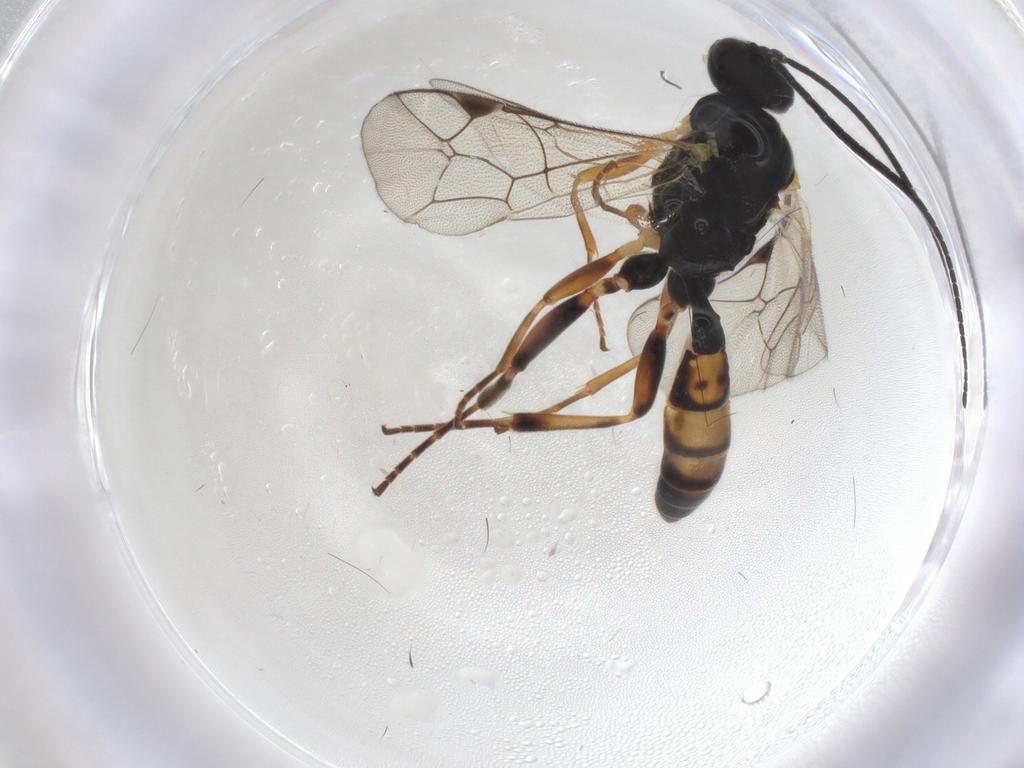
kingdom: Animalia
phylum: Arthropoda
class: Insecta
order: Hymenoptera
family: Ichneumonidae
